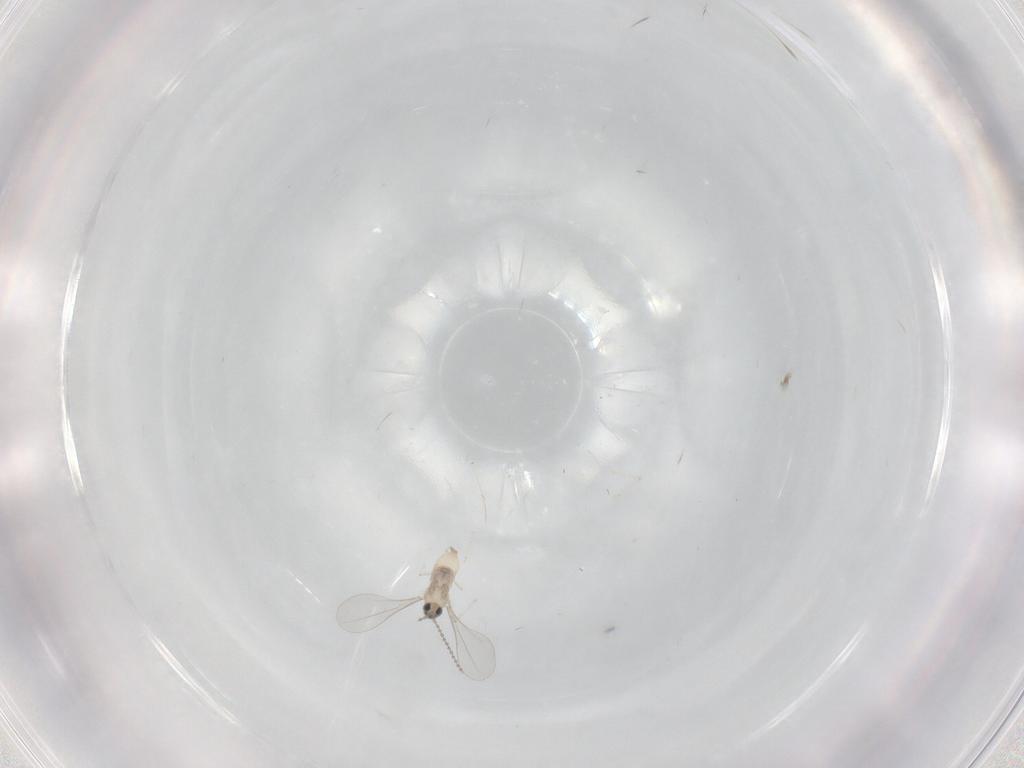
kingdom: Animalia
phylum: Arthropoda
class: Insecta
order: Diptera
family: Cecidomyiidae
